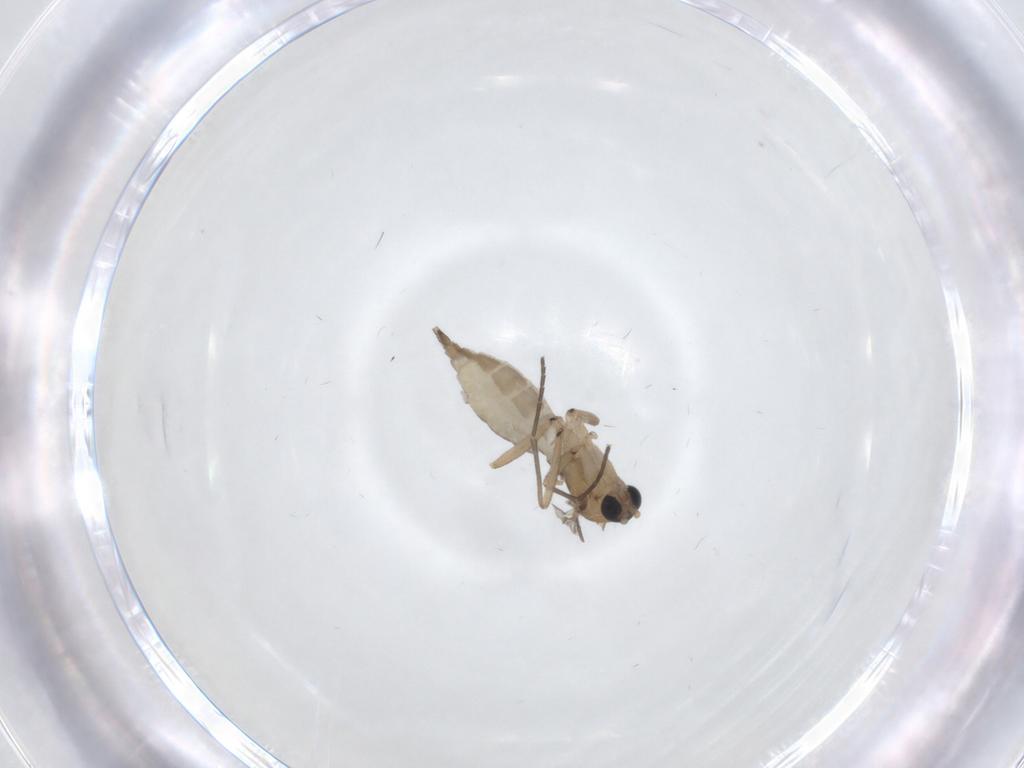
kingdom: Animalia
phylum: Arthropoda
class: Insecta
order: Diptera
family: Sciaridae
